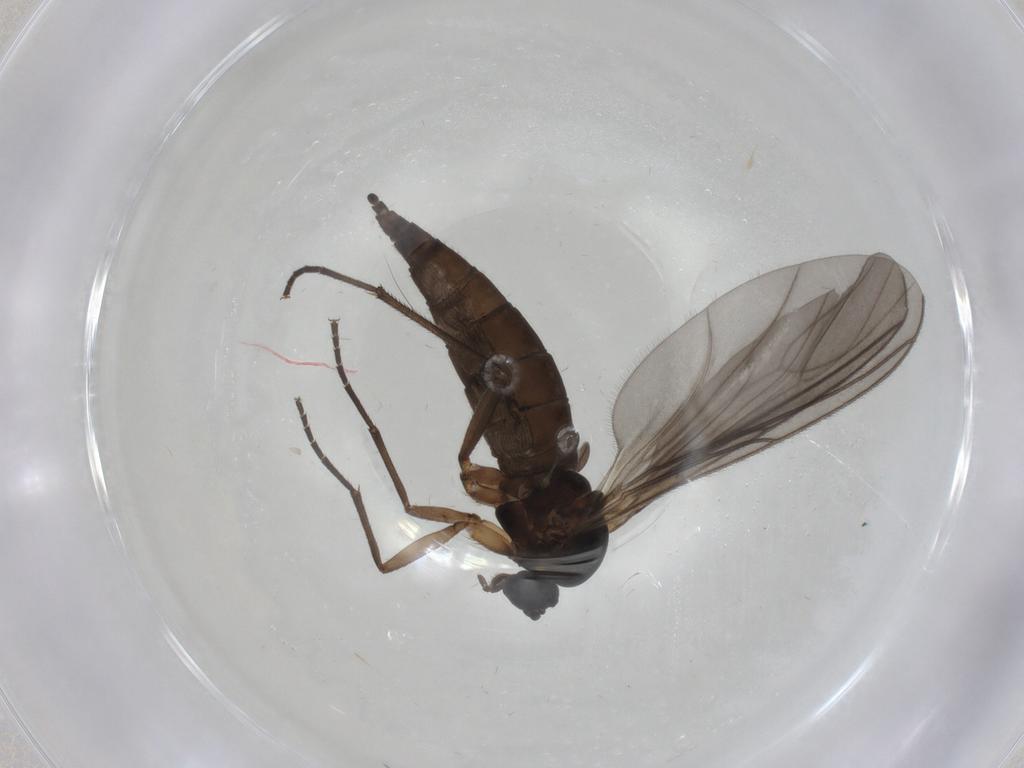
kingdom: Animalia
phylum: Arthropoda
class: Insecta
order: Diptera
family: Sciaridae
